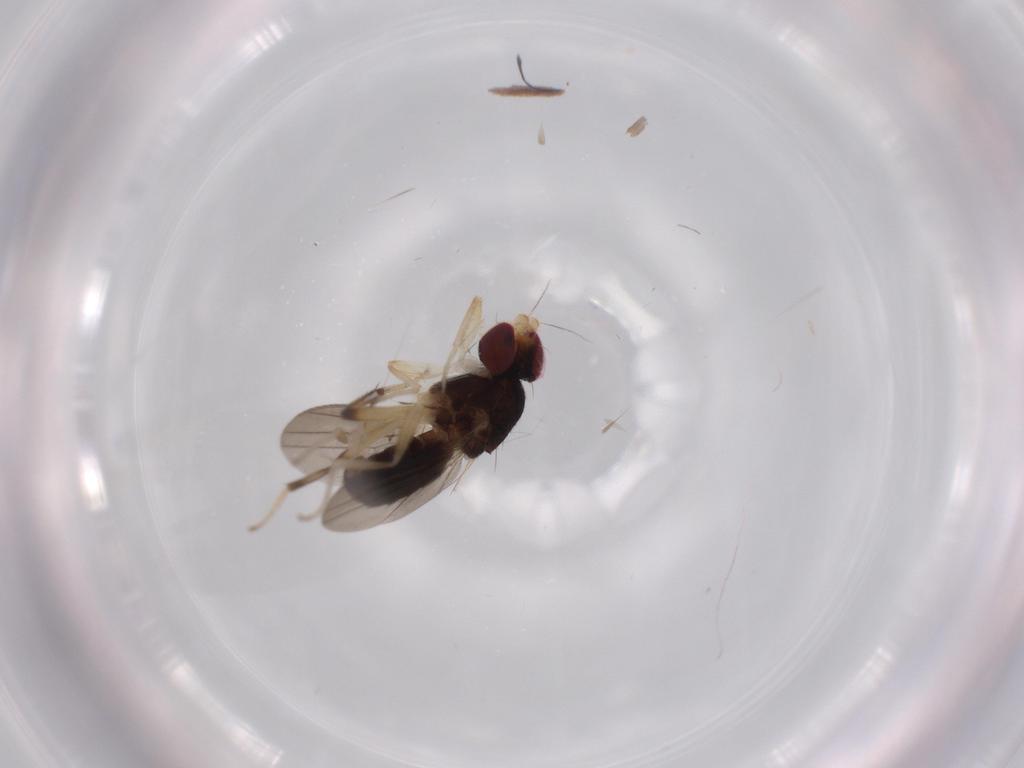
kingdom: Animalia
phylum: Arthropoda
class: Insecta
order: Diptera
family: Clusiidae
